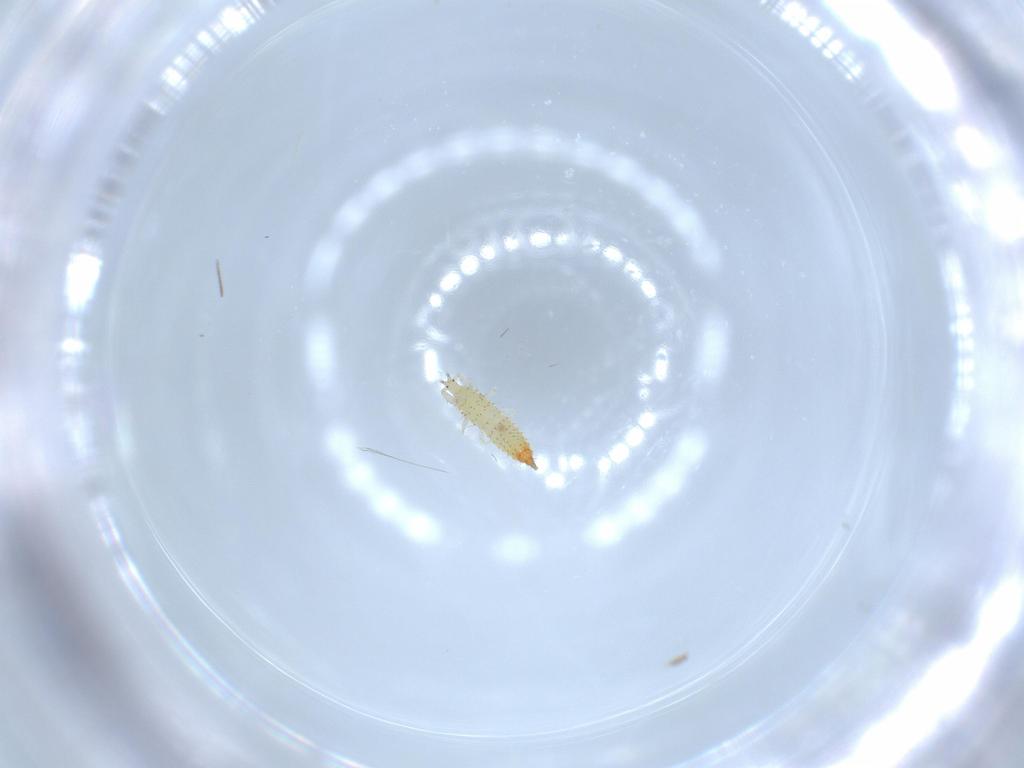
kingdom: Animalia
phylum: Arthropoda
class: Insecta
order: Thysanoptera
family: Phlaeothripidae
